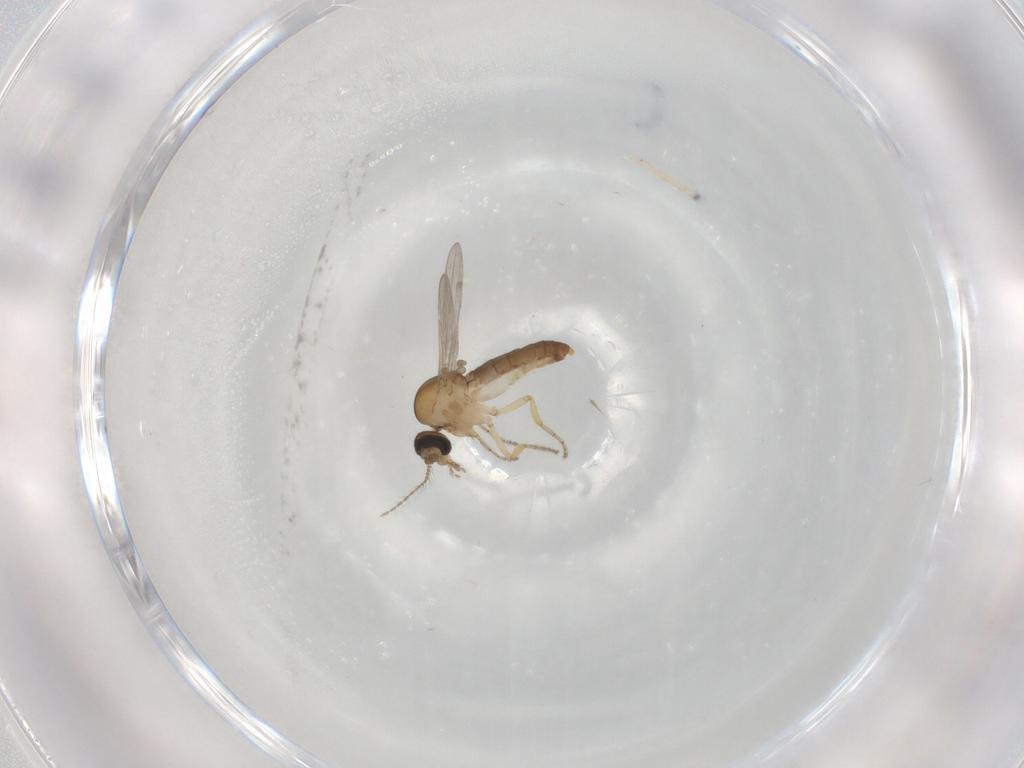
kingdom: Animalia
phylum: Arthropoda
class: Insecta
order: Diptera
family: Ceratopogonidae
